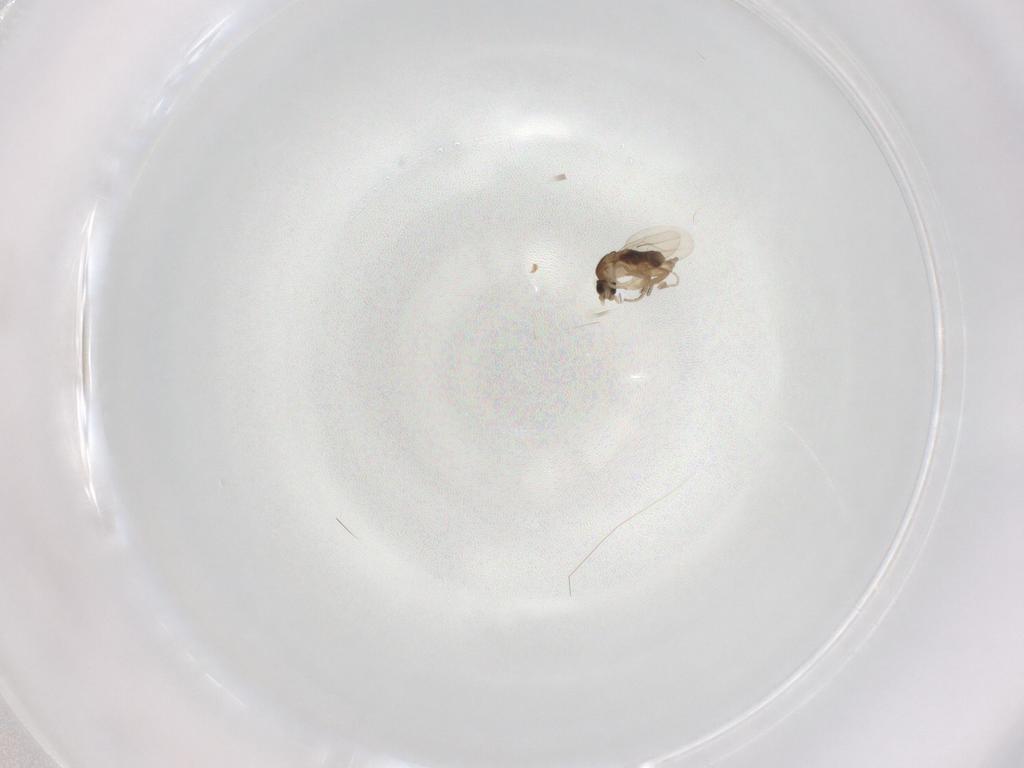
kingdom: Animalia
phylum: Arthropoda
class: Insecta
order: Diptera
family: Phoridae
